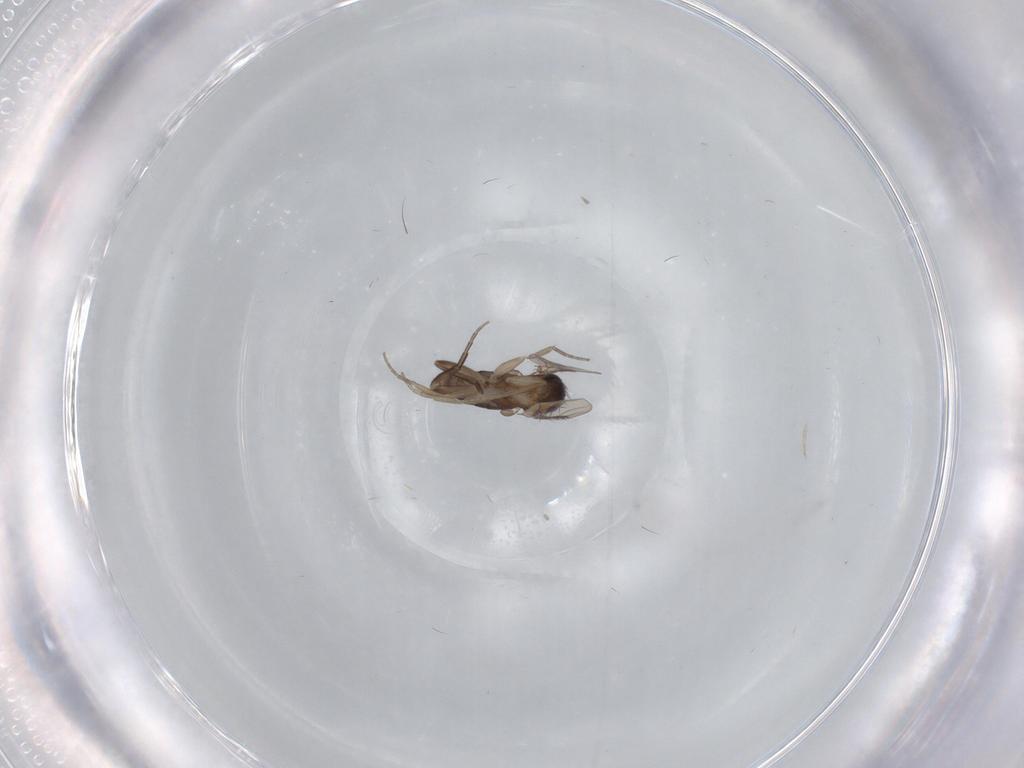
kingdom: Animalia
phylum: Arthropoda
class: Insecta
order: Diptera
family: Phoridae
